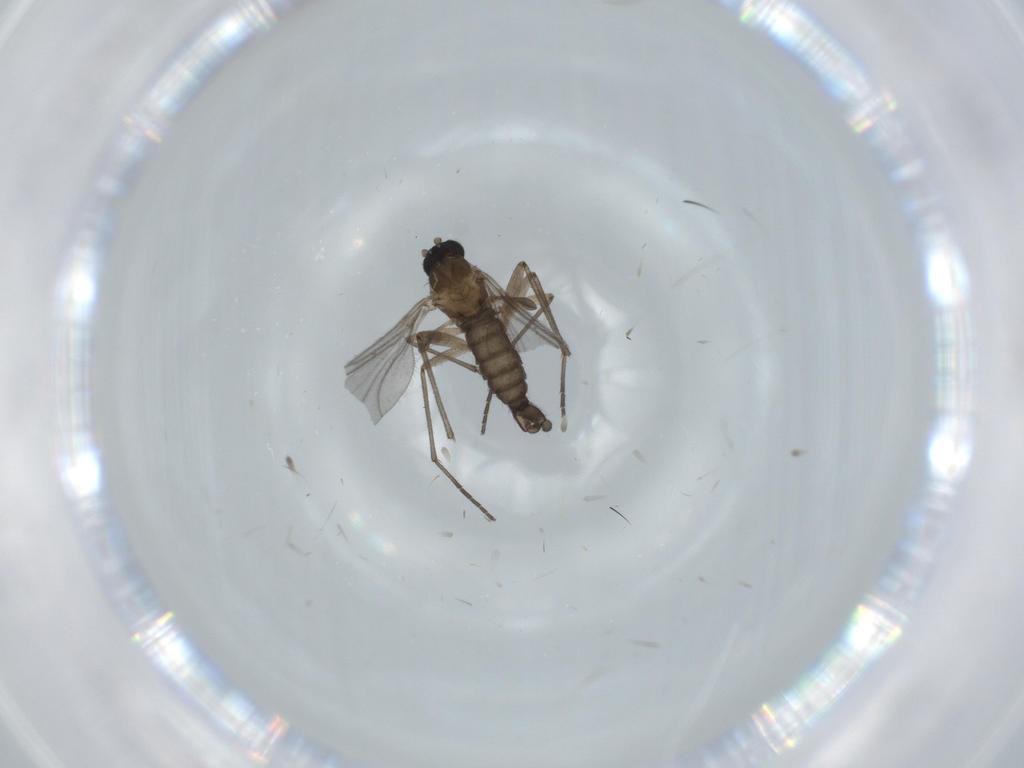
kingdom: Animalia
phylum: Arthropoda
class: Insecta
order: Diptera
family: Sciaridae
